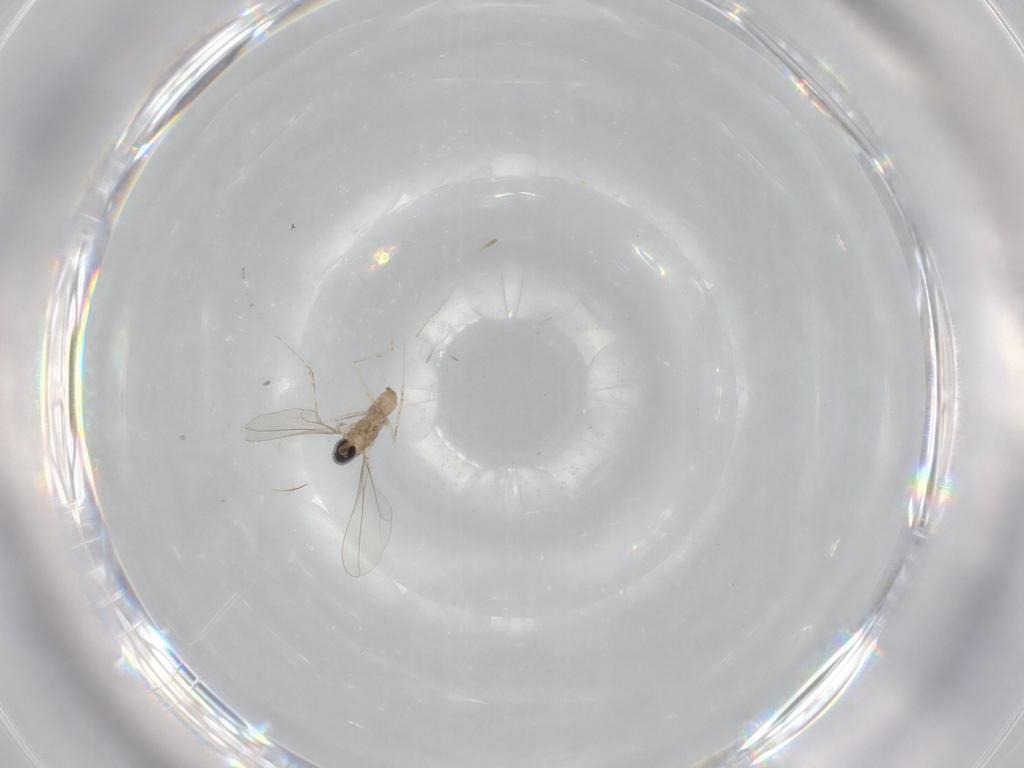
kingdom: Animalia
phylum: Arthropoda
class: Insecta
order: Diptera
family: Cecidomyiidae
